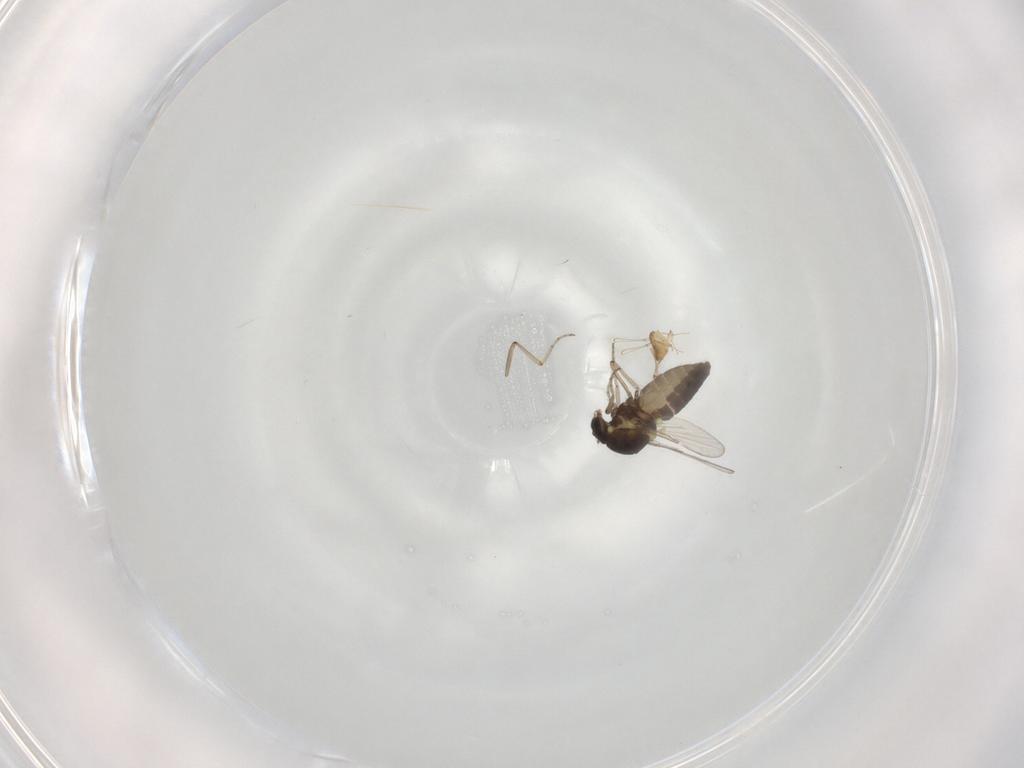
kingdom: Animalia
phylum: Arthropoda
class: Insecta
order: Diptera
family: Ceratopogonidae
